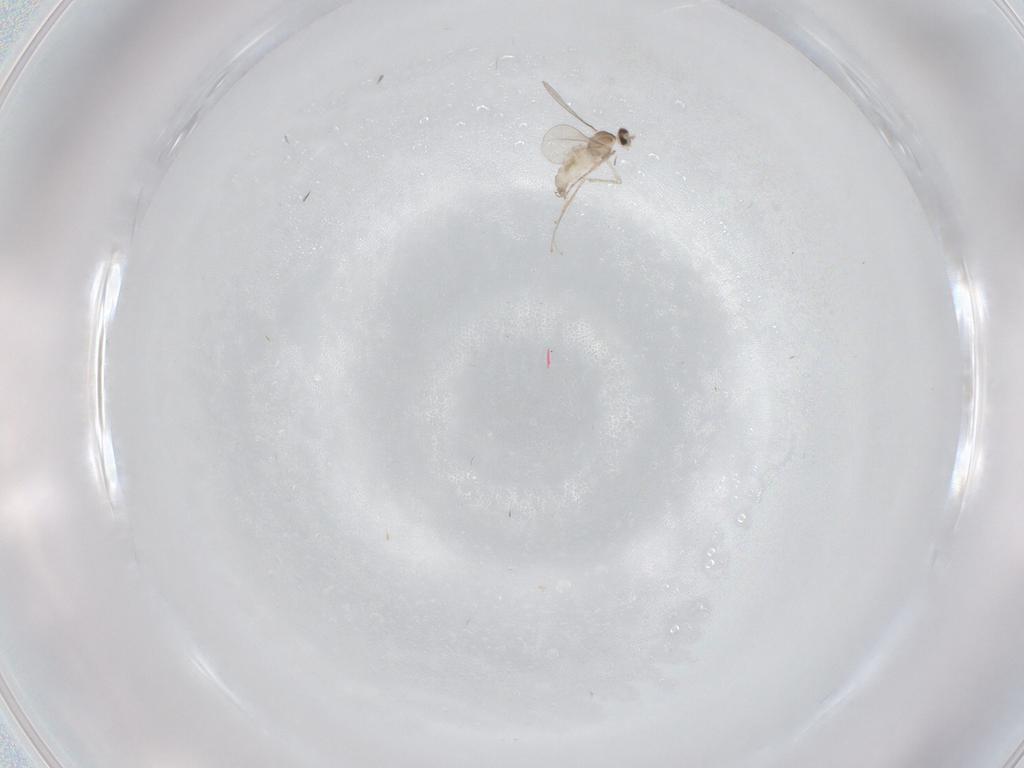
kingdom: Animalia
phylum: Arthropoda
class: Insecta
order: Diptera
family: Cecidomyiidae
